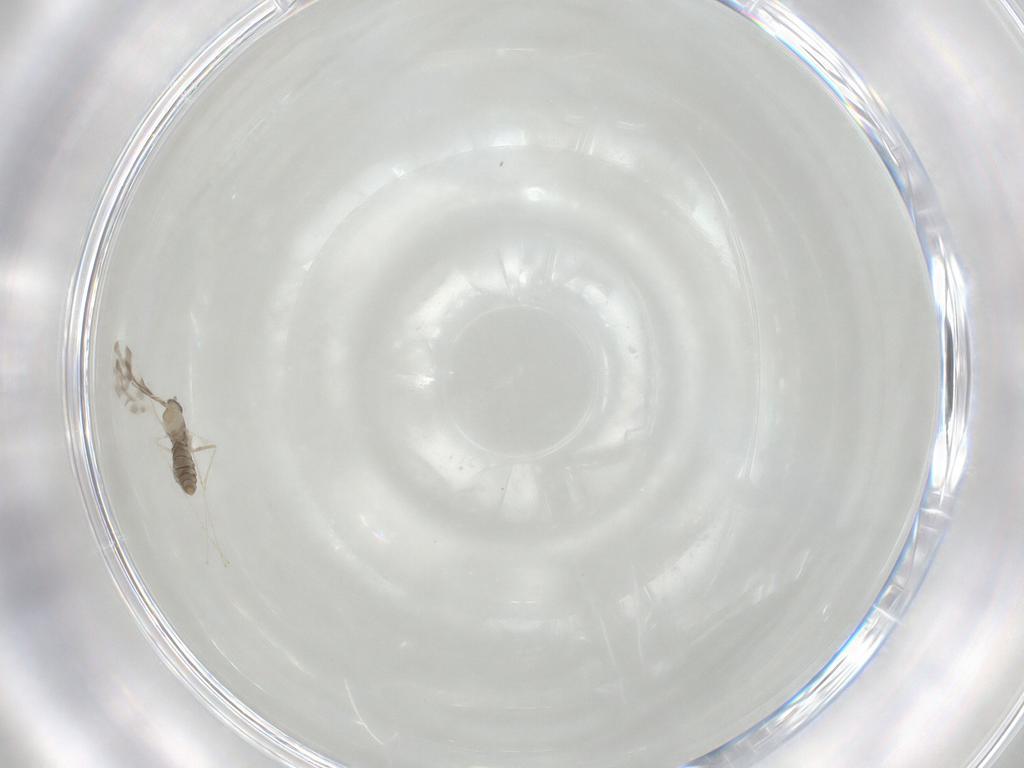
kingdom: Animalia
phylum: Arthropoda
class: Insecta
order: Diptera
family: Cecidomyiidae
